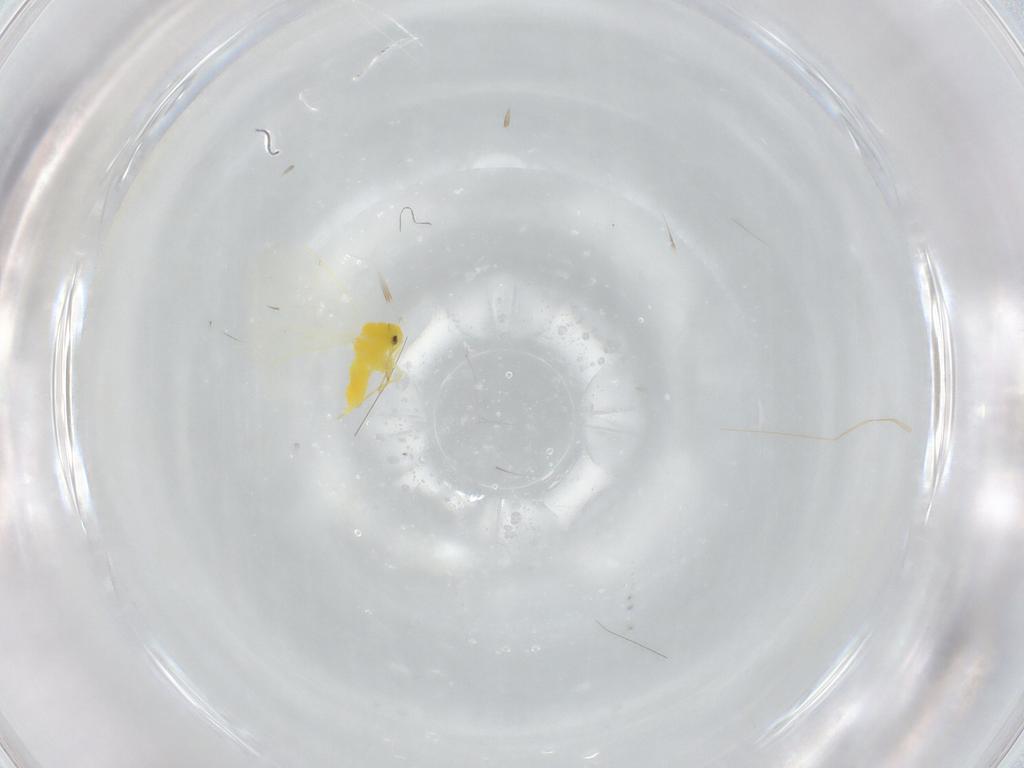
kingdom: Animalia
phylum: Arthropoda
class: Insecta
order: Hemiptera
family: Aleyrodidae
